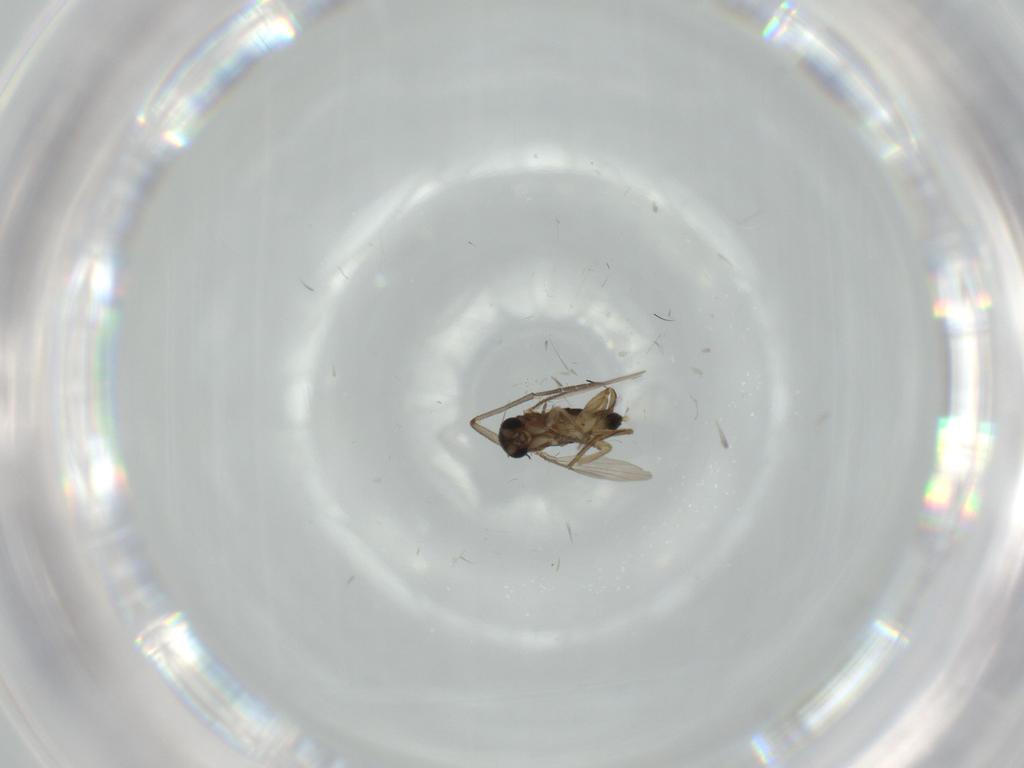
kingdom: Animalia
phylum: Arthropoda
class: Insecta
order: Diptera
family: Phoridae
